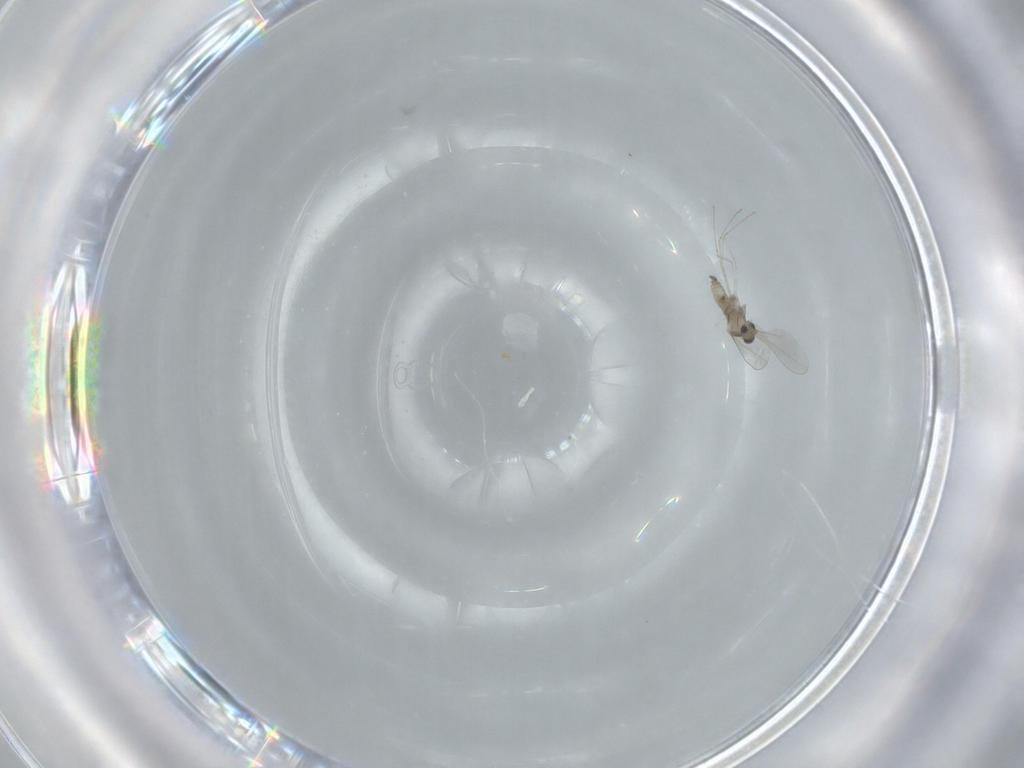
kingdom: Animalia
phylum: Arthropoda
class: Insecta
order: Diptera
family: Cecidomyiidae
